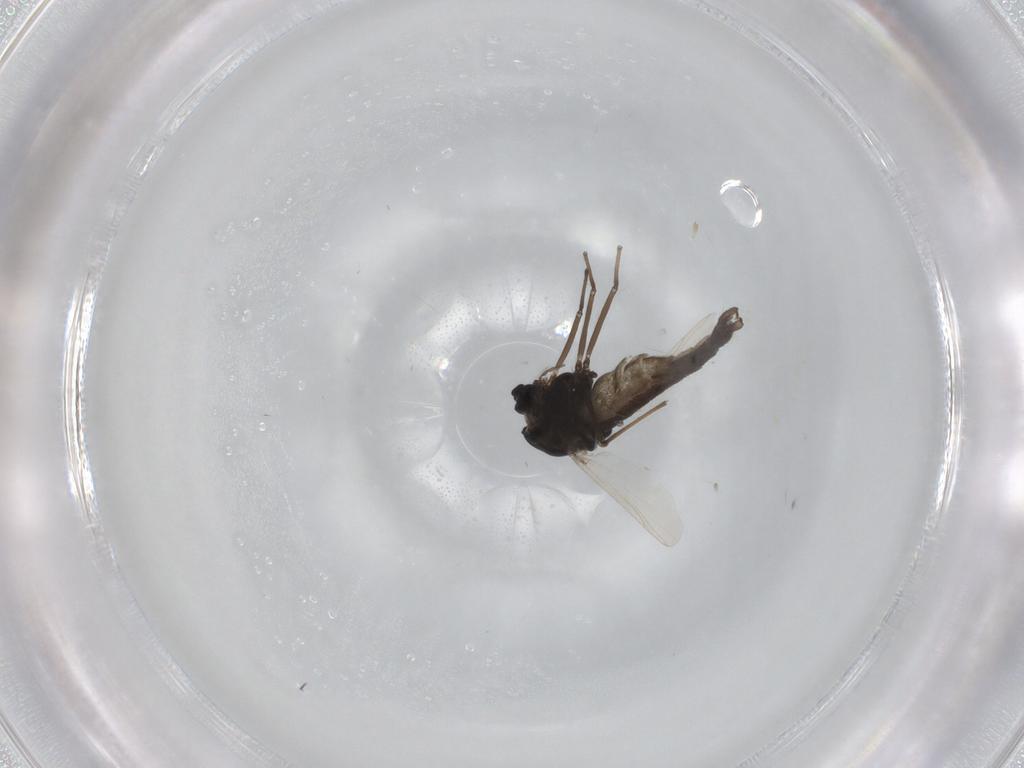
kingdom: Animalia
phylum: Arthropoda
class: Insecta
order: Diptera
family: Chironomidae
